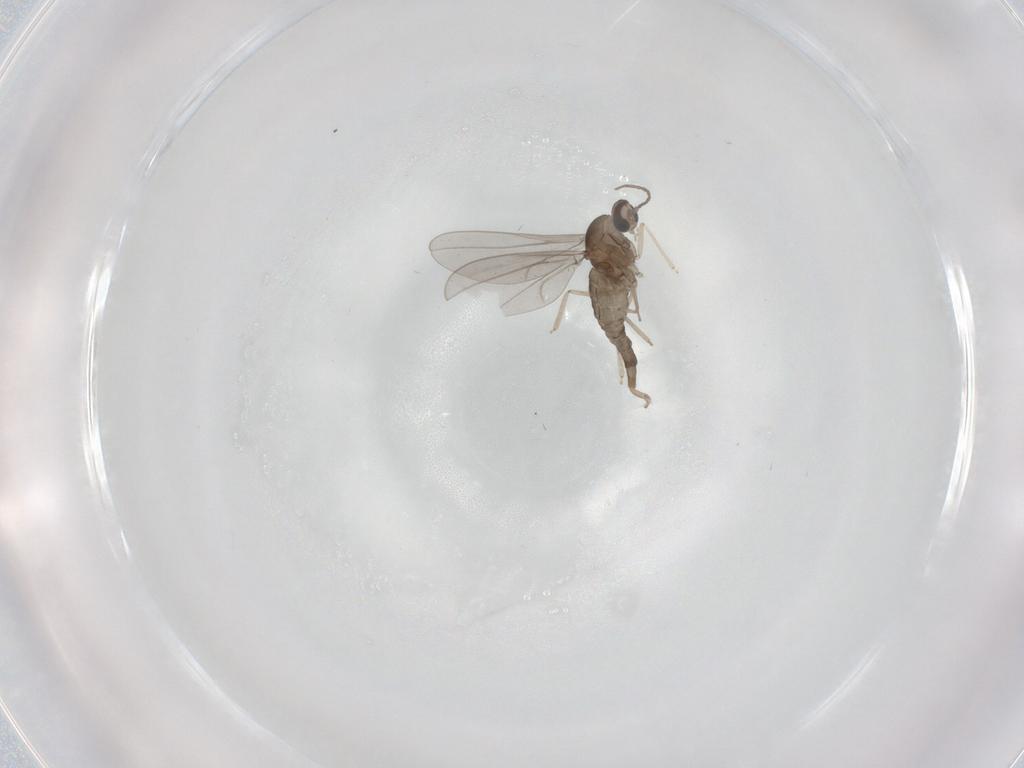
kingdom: Animalia
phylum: Arthropoda
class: Insecta
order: Diptera
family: Cecidomyiidae
